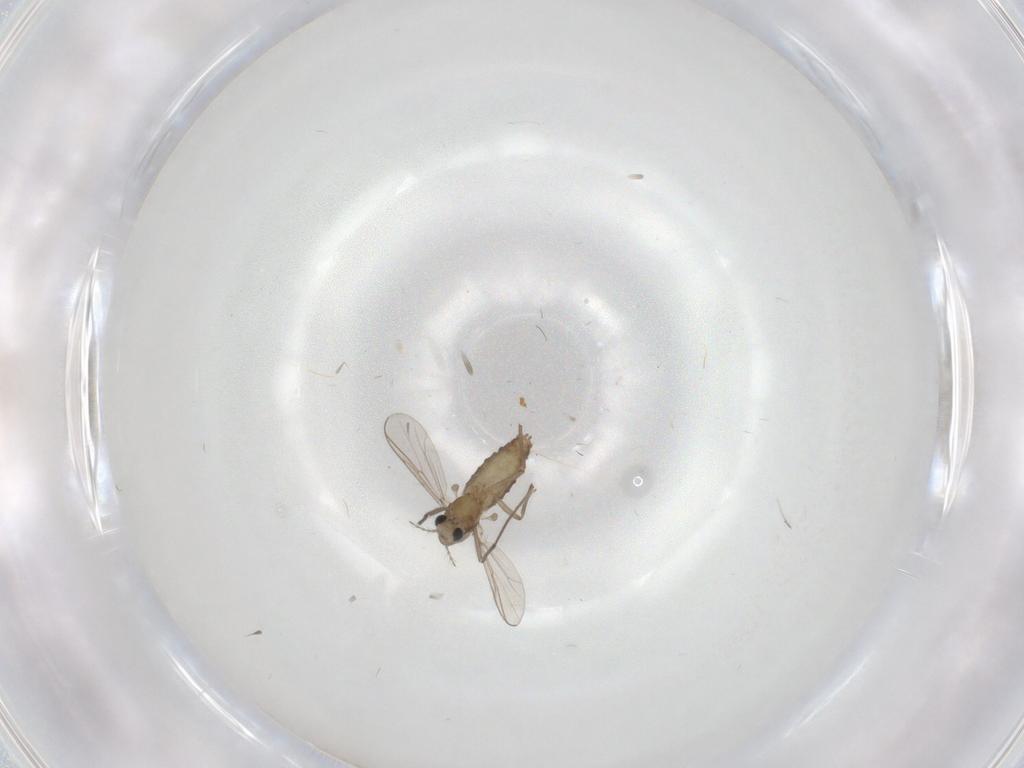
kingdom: Animalia
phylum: Arthropoda
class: Insecta
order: Diptera
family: Chironomidae
